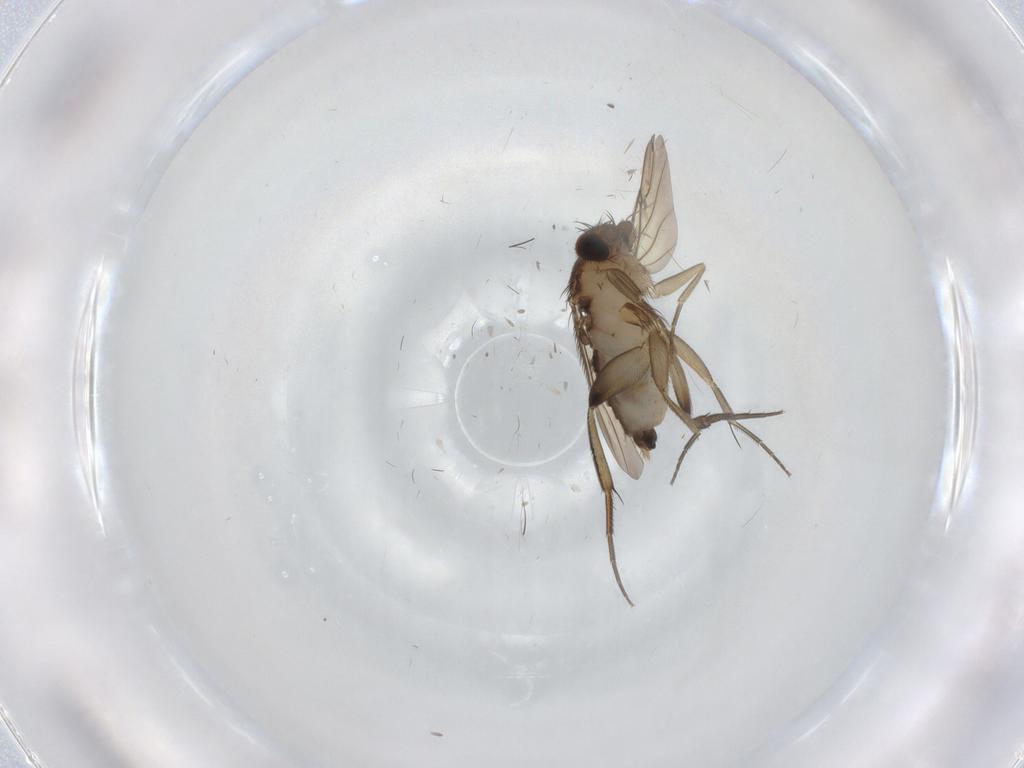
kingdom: Animalia
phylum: Arthropoda
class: Insecta
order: Diptera
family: Phoridae
